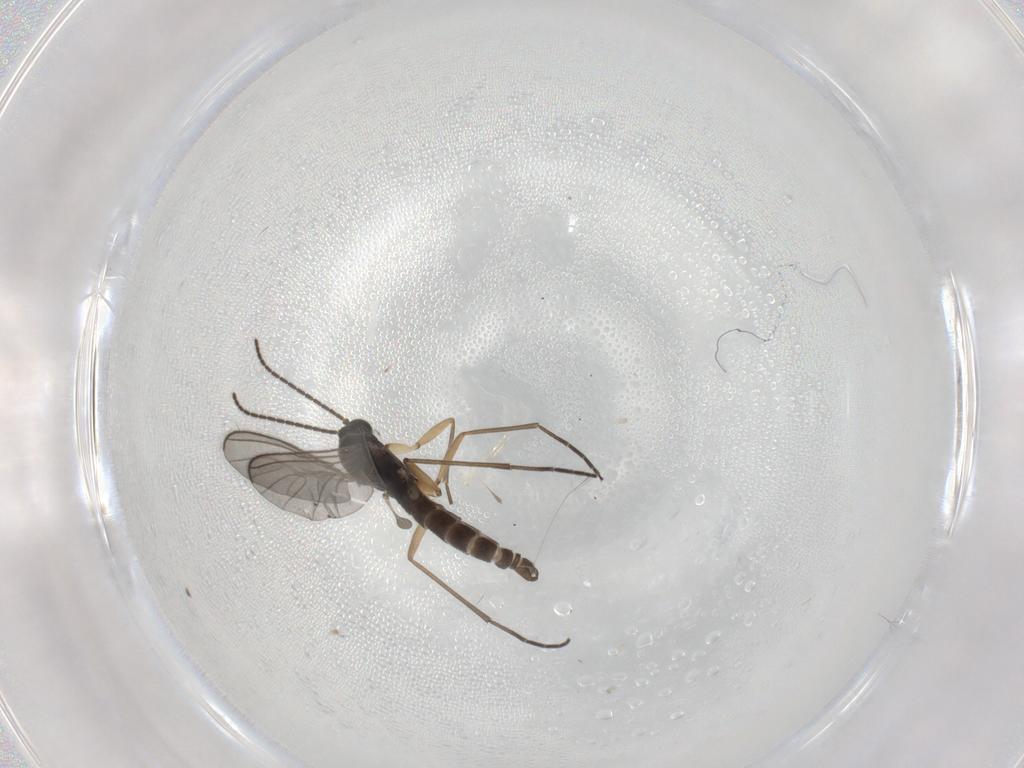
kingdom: Animalia
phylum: Arthropoda
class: Insecta
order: Diptera
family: Sciaridae
